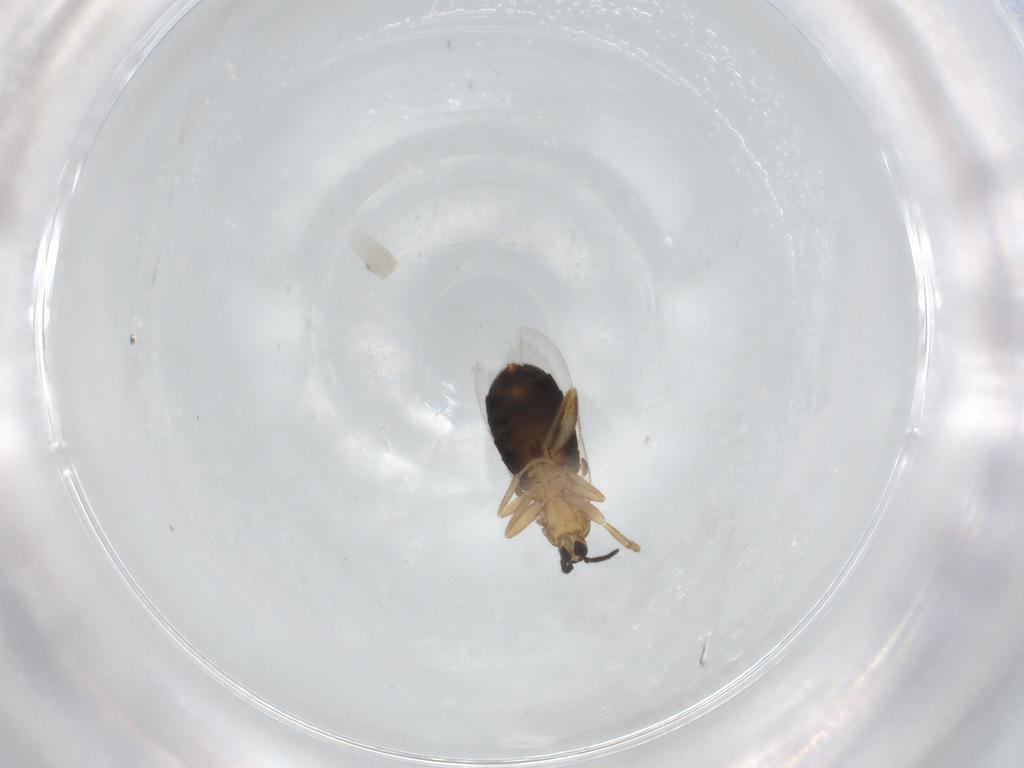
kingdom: Animalia
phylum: Arthropoda
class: Insecta
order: Diptera
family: Scatopsidae
